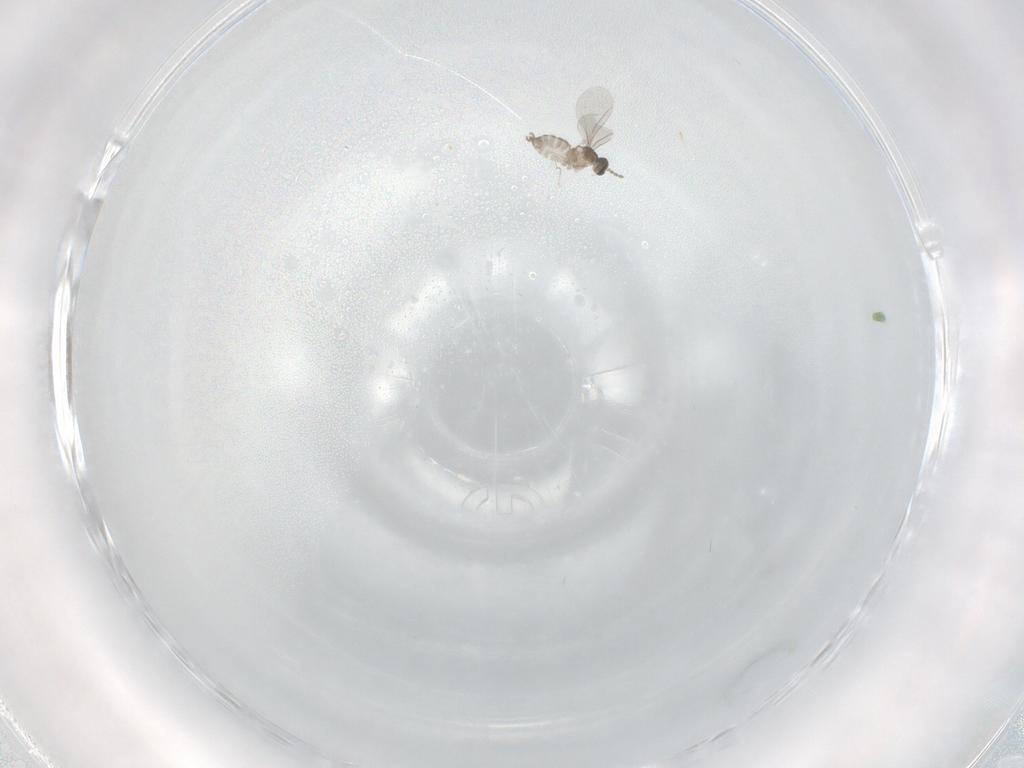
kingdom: Animalia
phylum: Arthropoda
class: Insecta
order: Diptera
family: Cecidomyiidae
